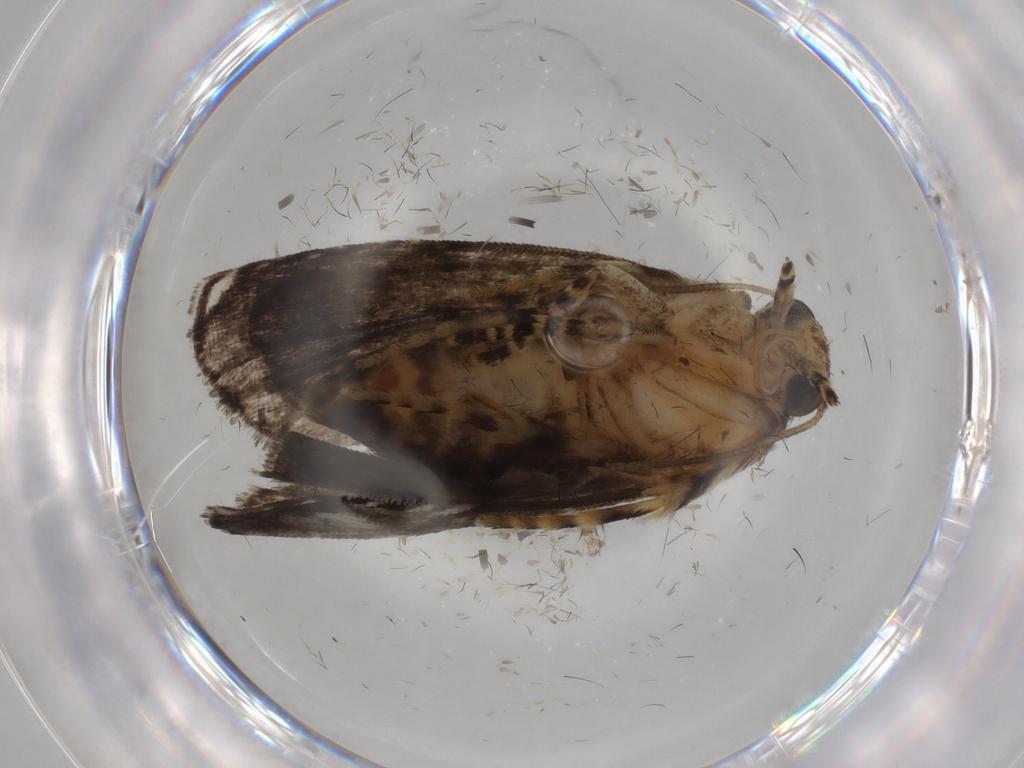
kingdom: Animalia
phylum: Arthropoda
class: Insecta
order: Lepidoptera
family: Immidae
